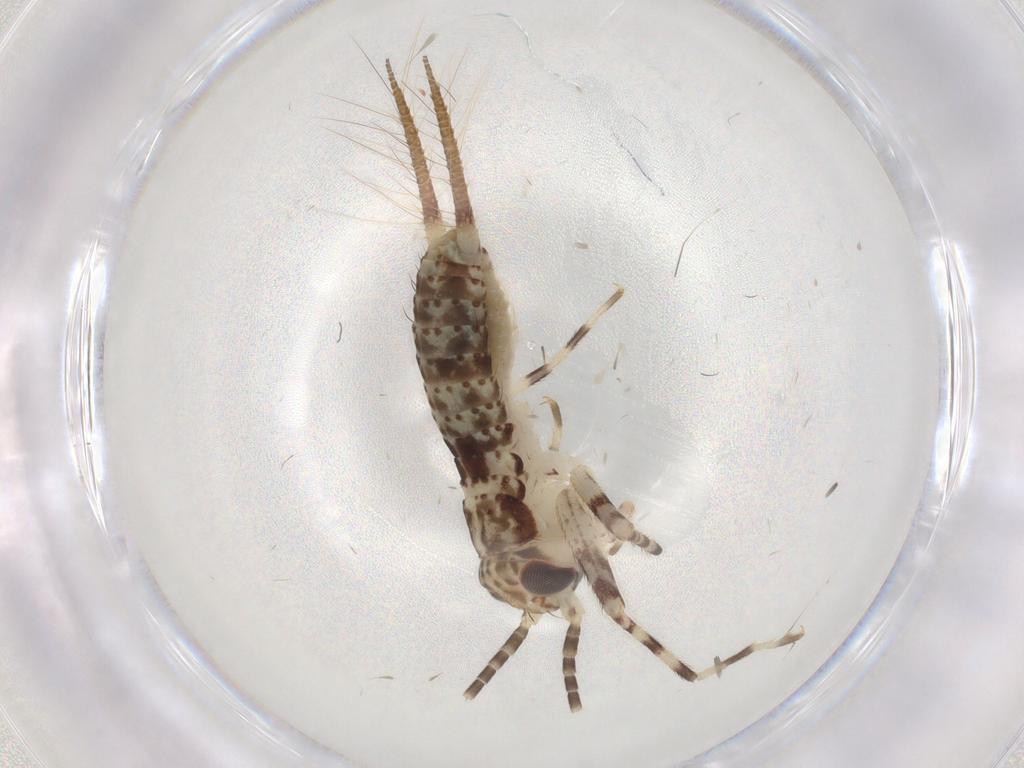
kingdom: Animalia
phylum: Arthropoda
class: Insecta
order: Orthoptera
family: Gryllidae
